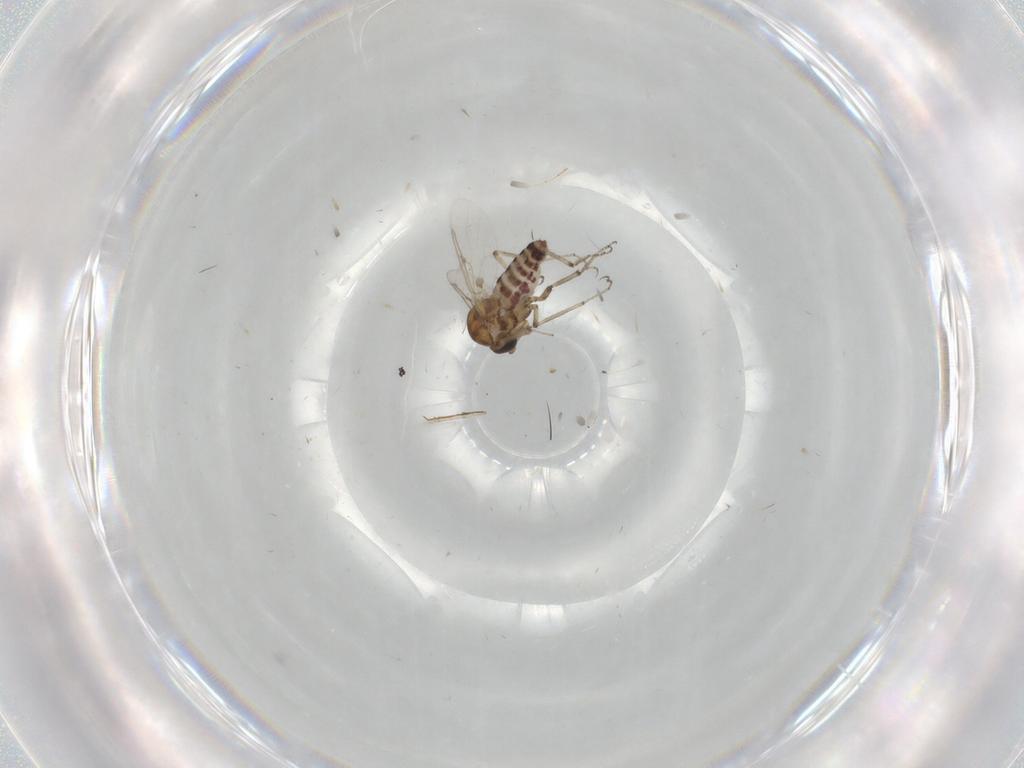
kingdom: Animalia
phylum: Arthropoda
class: Insecta
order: Diptera
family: Ceratopogonidae
